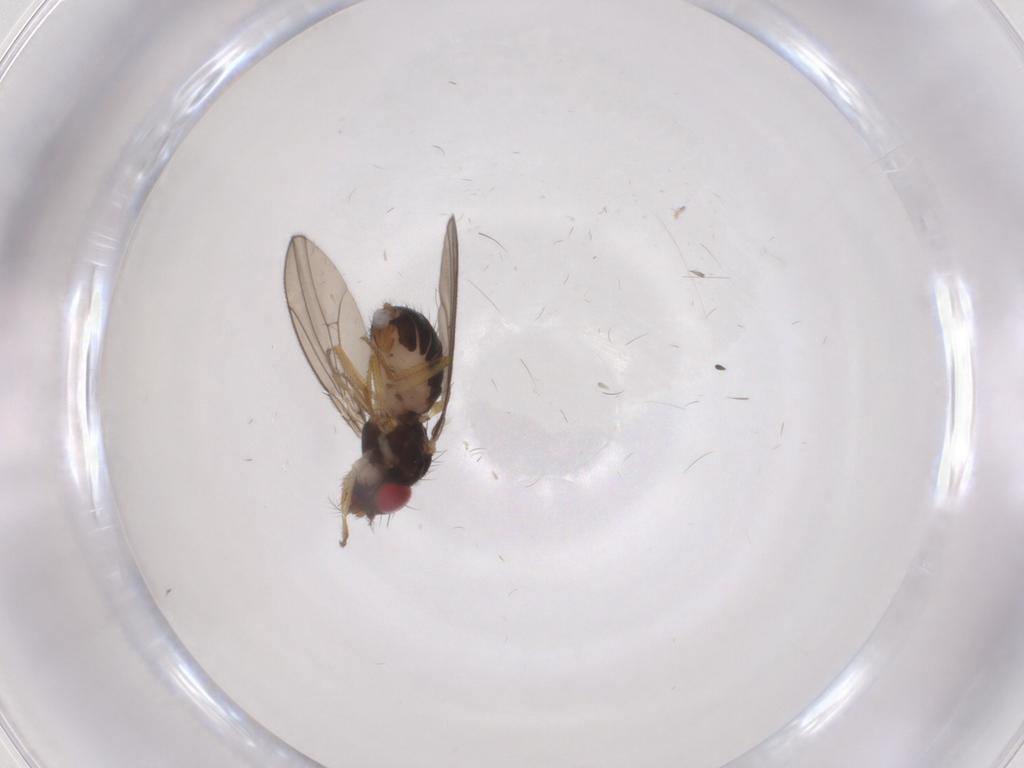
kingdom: Animalia
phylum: Arthropoda
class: Insecta
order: Diptera
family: Drosophilidae
